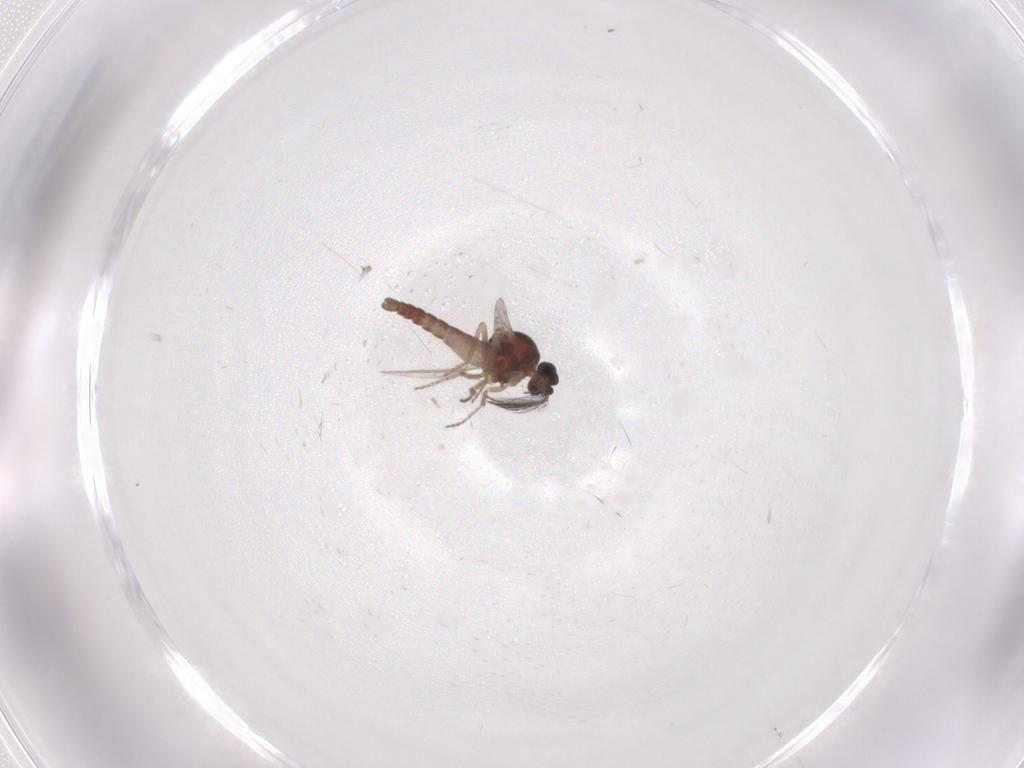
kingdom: Animalia
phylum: Arthropoda
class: Insecta
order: Diptera
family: Ceratopogonidae
